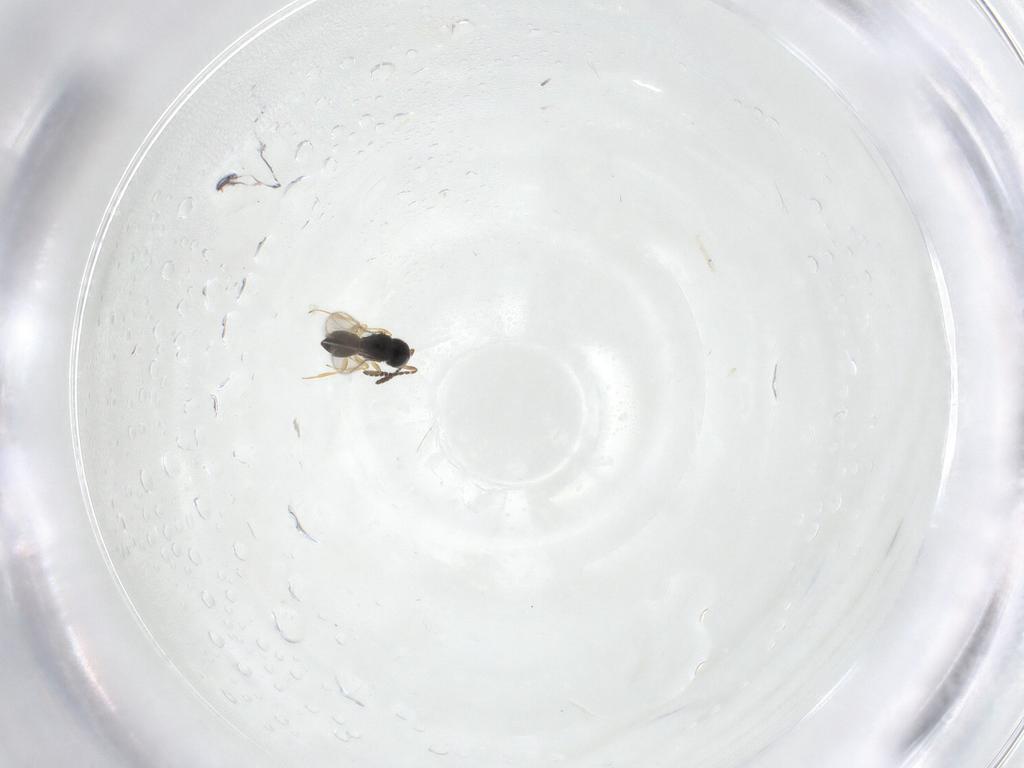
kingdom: Animalia
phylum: Arthropoda
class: Insecta
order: Hymenoptera
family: Scelionidae
